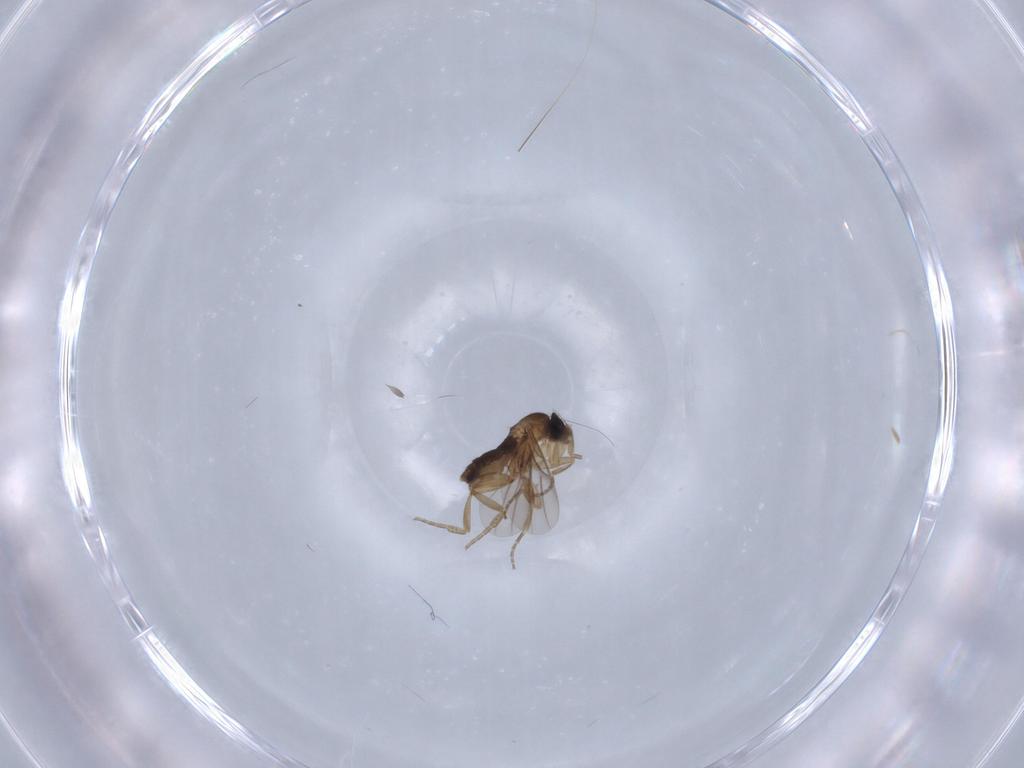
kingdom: Animalia
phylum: Arthropoda
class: Insecta
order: Diptera
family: Phoridae
